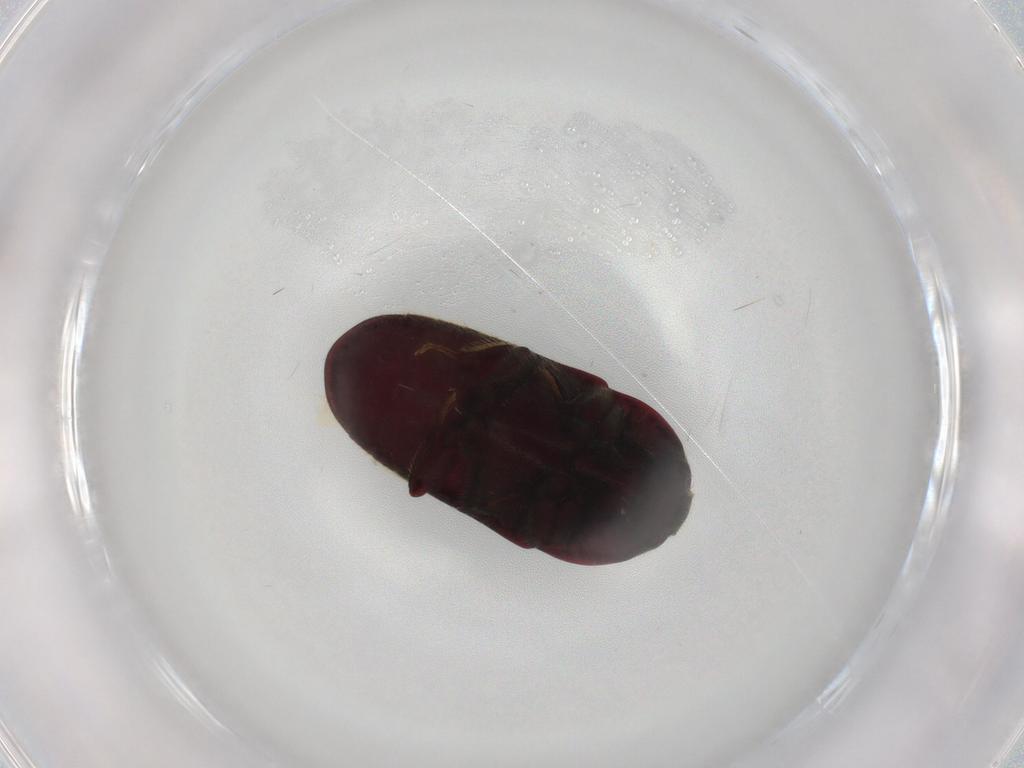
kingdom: Animalia
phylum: Arthropoda
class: Insecta
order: Coleoptera
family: Throscidae
